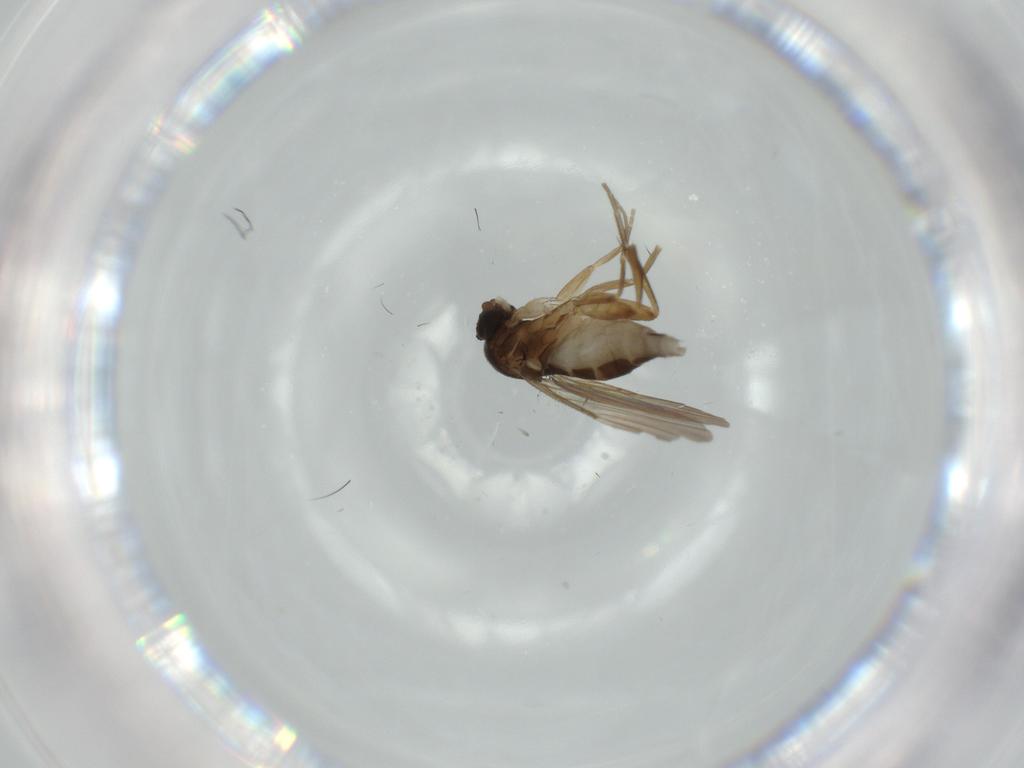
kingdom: Animalia
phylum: Arthropoda
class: Insecta
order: Diptera
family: Phoridae
